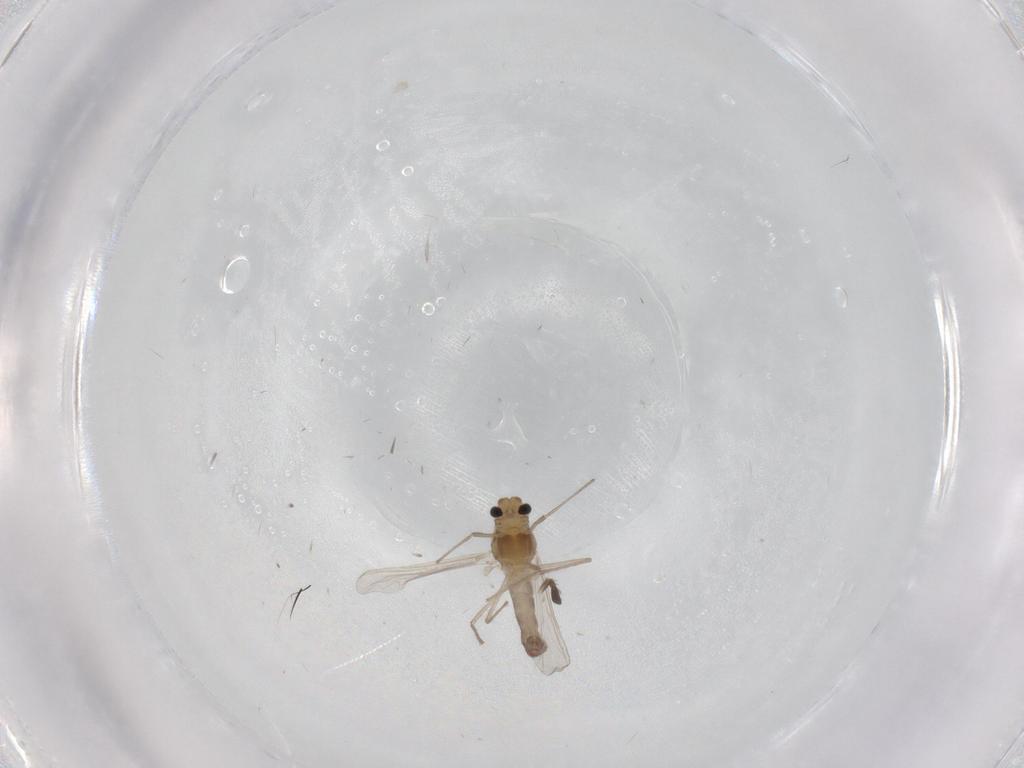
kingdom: Animalia
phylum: Arthropoda
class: Insecta
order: Diptera
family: Chironomidae
